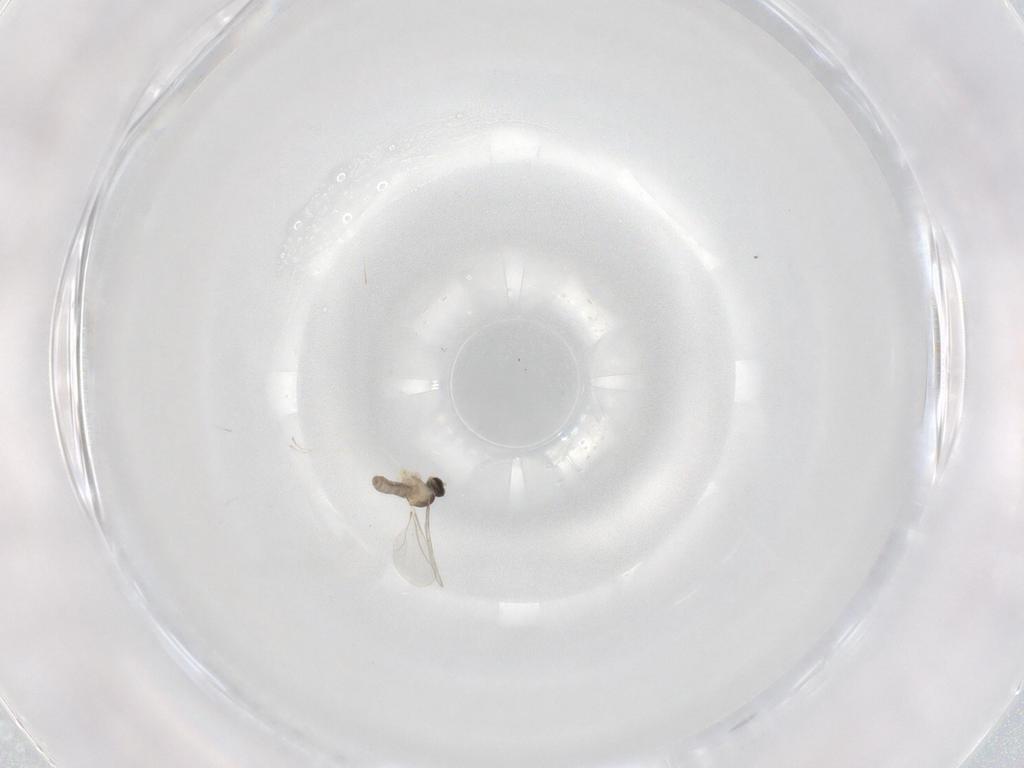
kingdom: Animalia
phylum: Arthropoda
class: Insecta
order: Diptera
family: Cecidomyiidae
